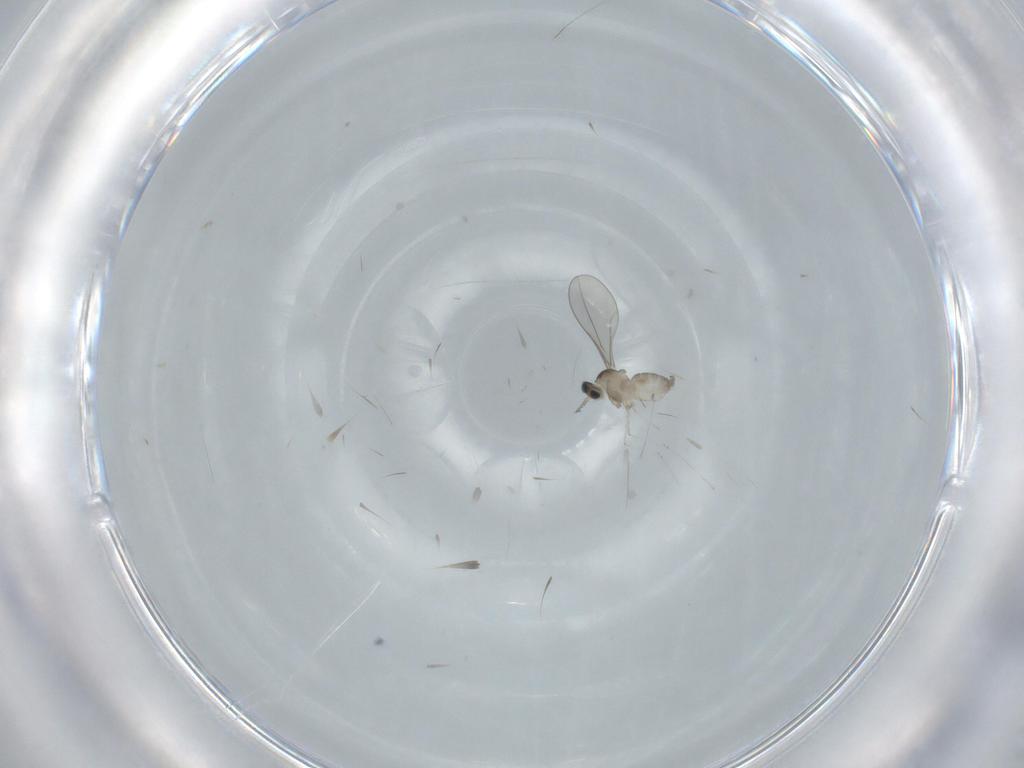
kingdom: Animalia
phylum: Arthropoda
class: Insecta
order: Diptera
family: Cecidomyiidae
